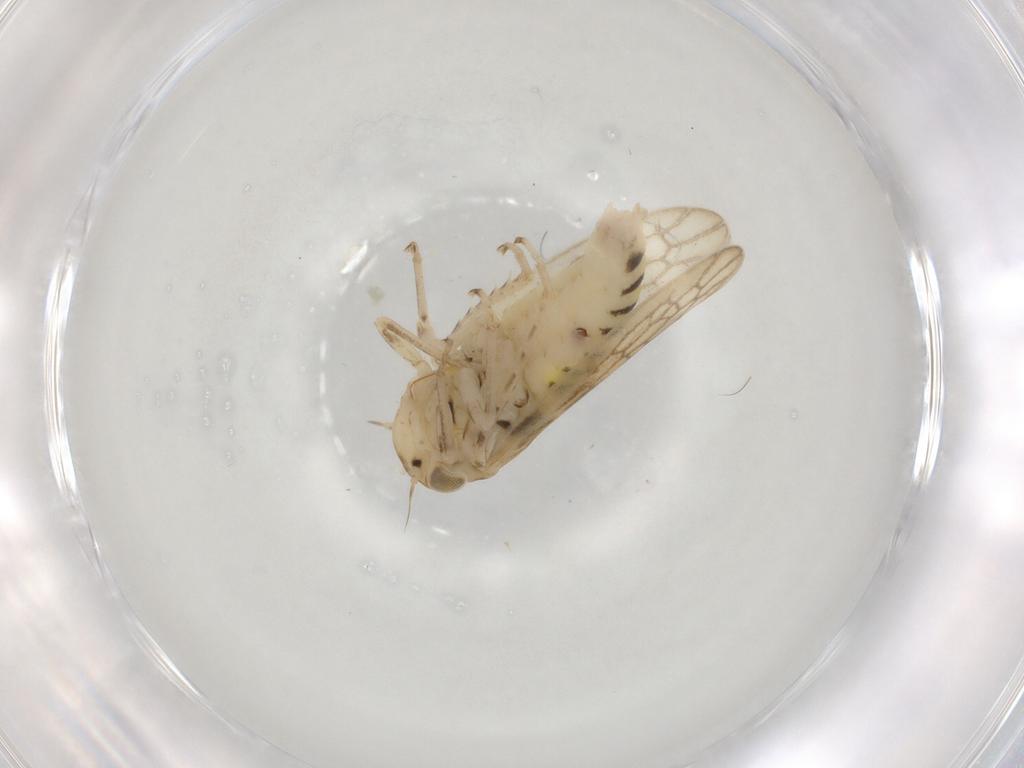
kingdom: Animalia
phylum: Arthropoda
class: Insecta
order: Hemiptera
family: Cicadellidae
